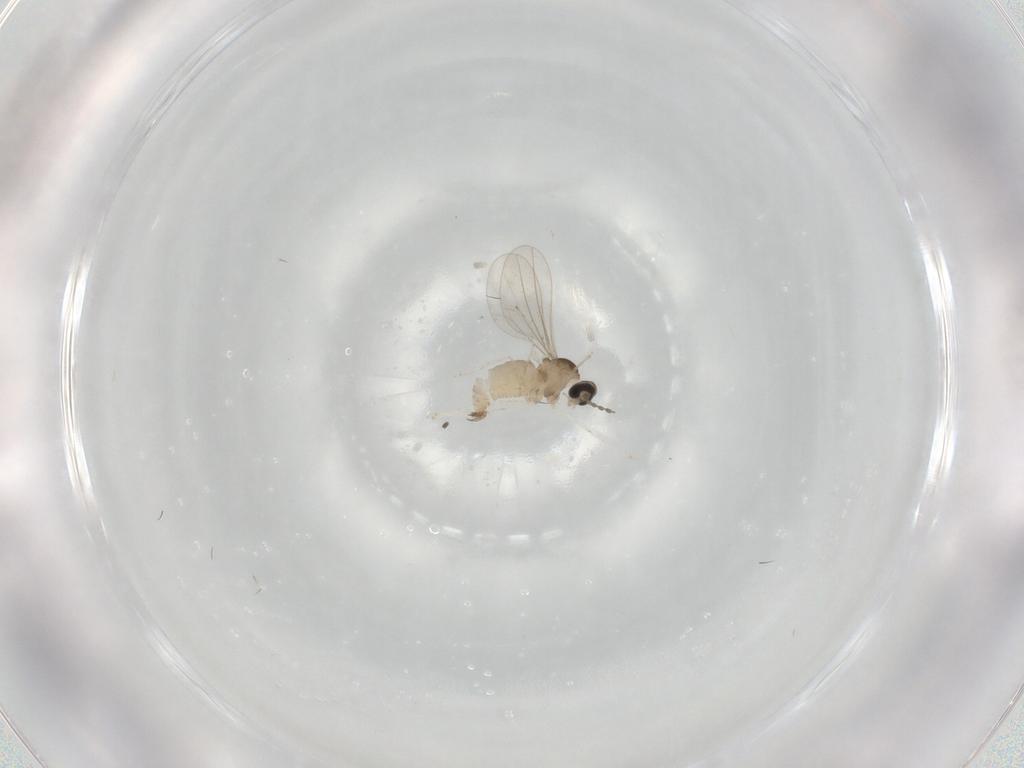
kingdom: Animalia
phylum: Arthropoda
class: Insecta
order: Diptera
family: Cecidomyiidae
